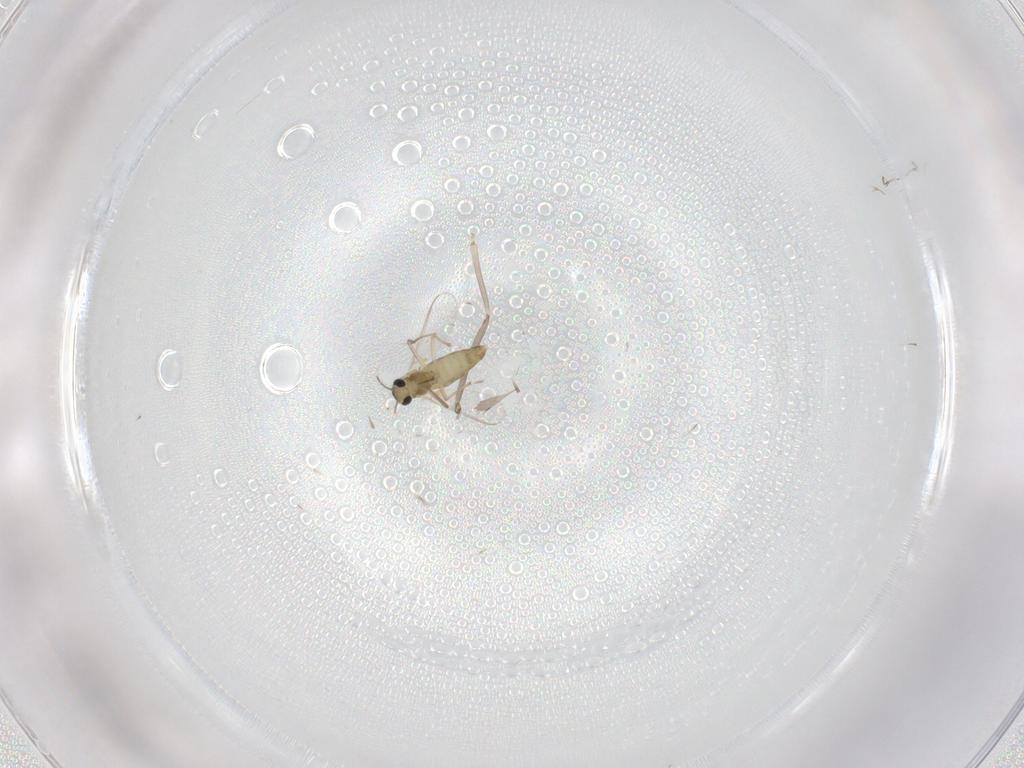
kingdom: Animalia
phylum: Arthropoda
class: Insecta
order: Diptera
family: Chironomidae
